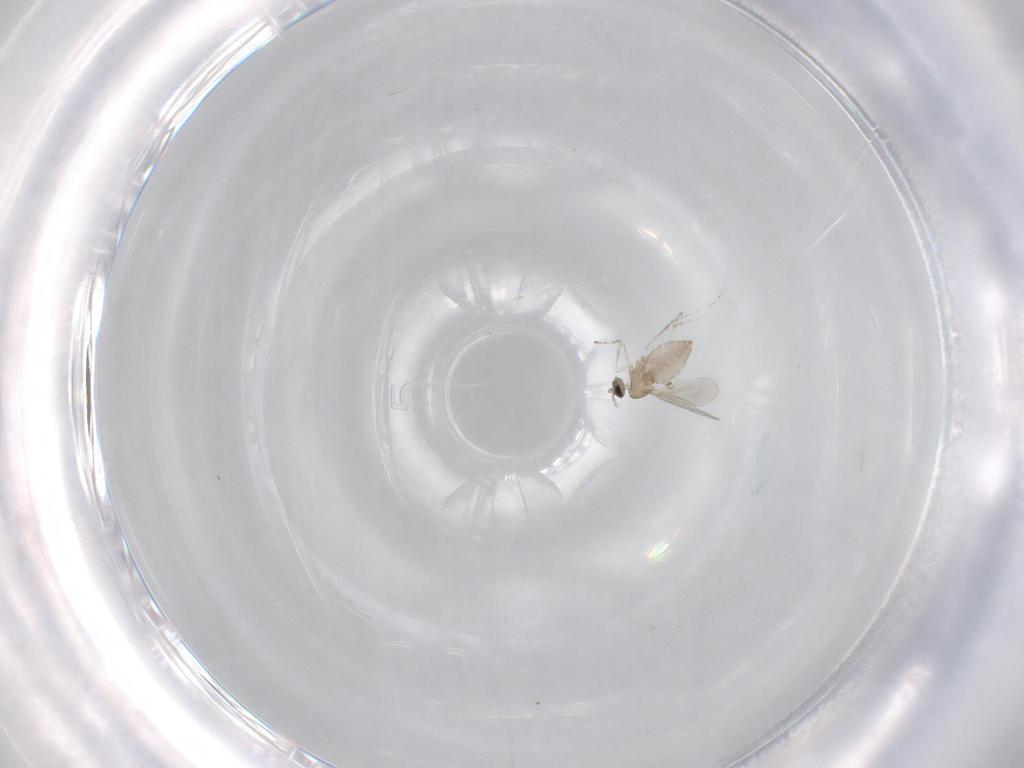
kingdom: Animalia
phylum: Arthropoda
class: Insecta
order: Diptera
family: Cecidomyiidae
